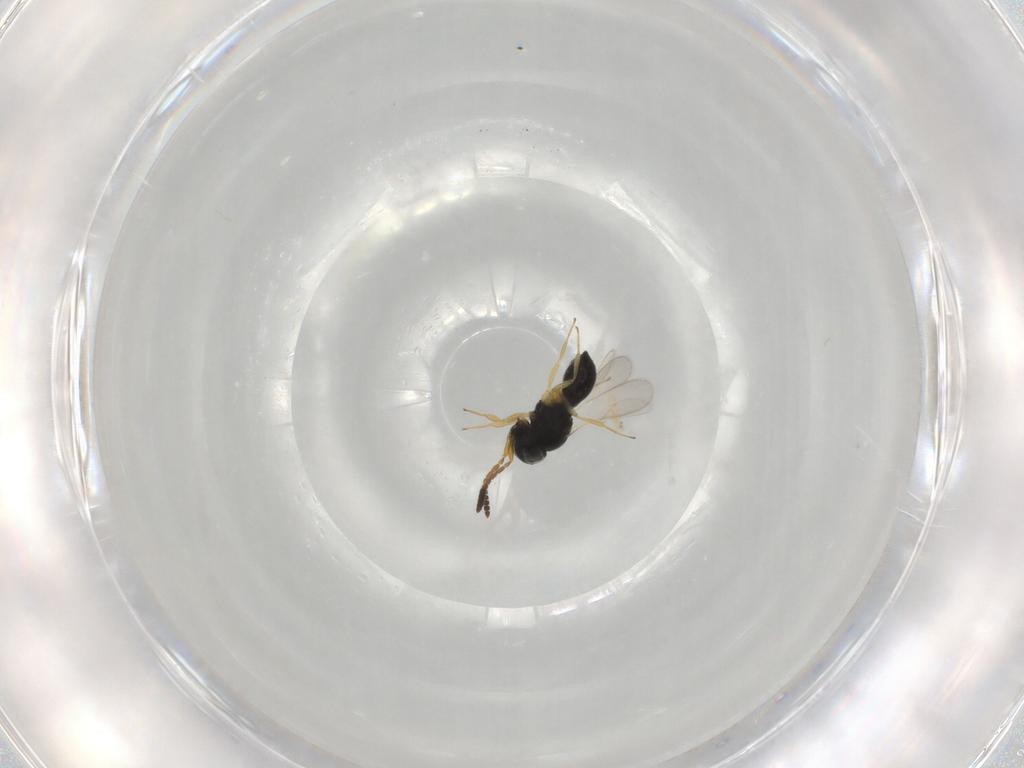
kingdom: Animalia
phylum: Arthropoda
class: Insecta
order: Hymenoptera
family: Scelionidae
